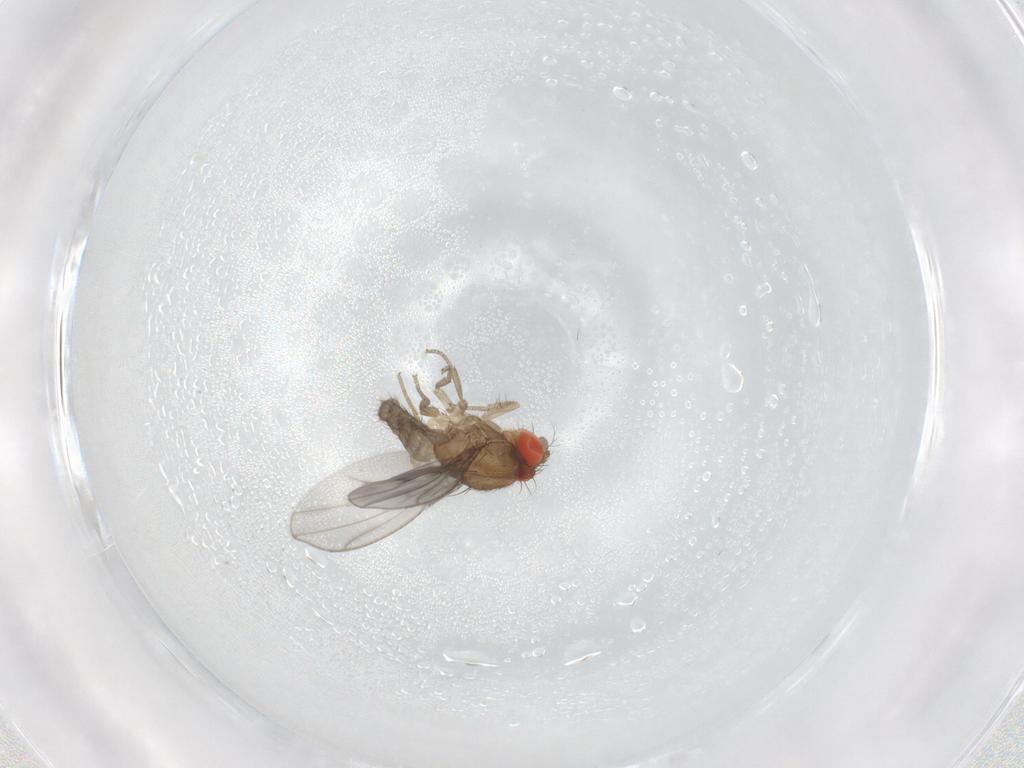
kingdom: Animalia
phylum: Arthropoda
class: Insecta
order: Diptera
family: Drosophilidae
